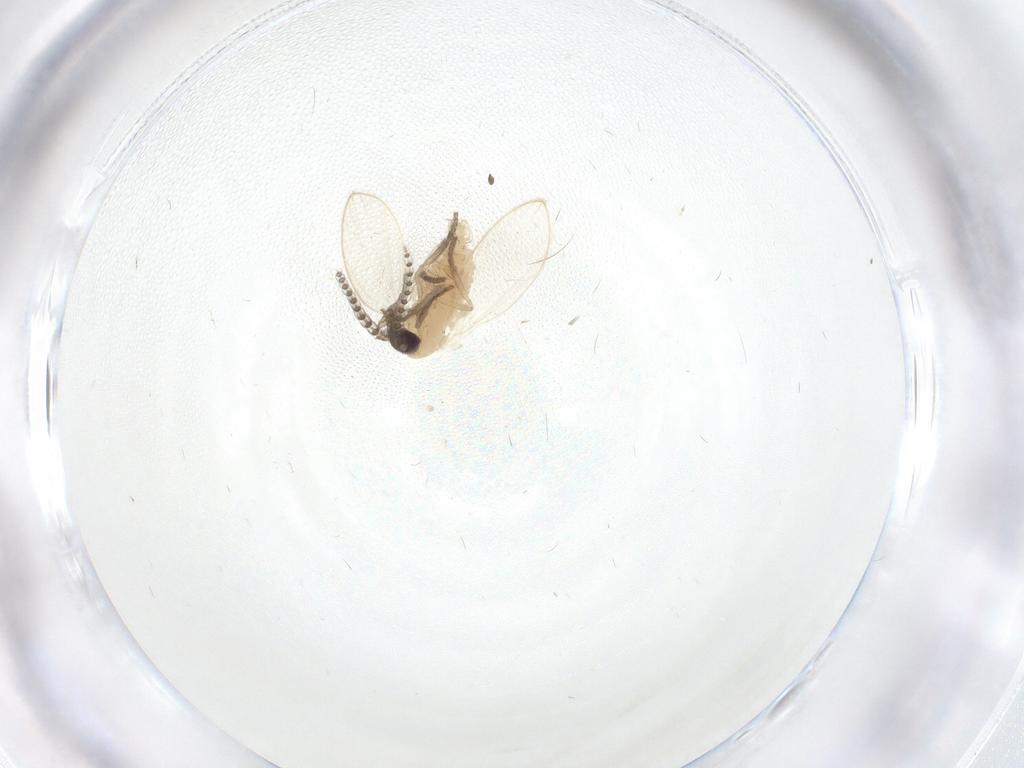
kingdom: Animalia
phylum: Arthropoda
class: Insecta
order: Diptera
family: Psychodidae
